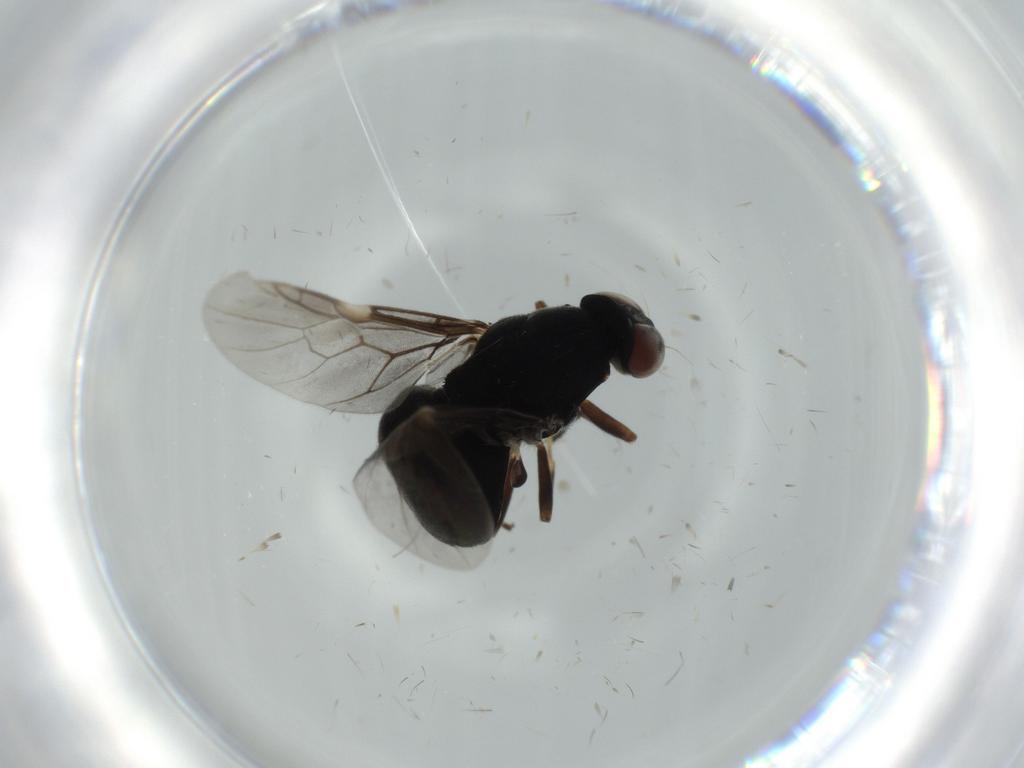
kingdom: Animalia
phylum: Arthropoda
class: Insecta
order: Diptera
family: Stratiomyidae
